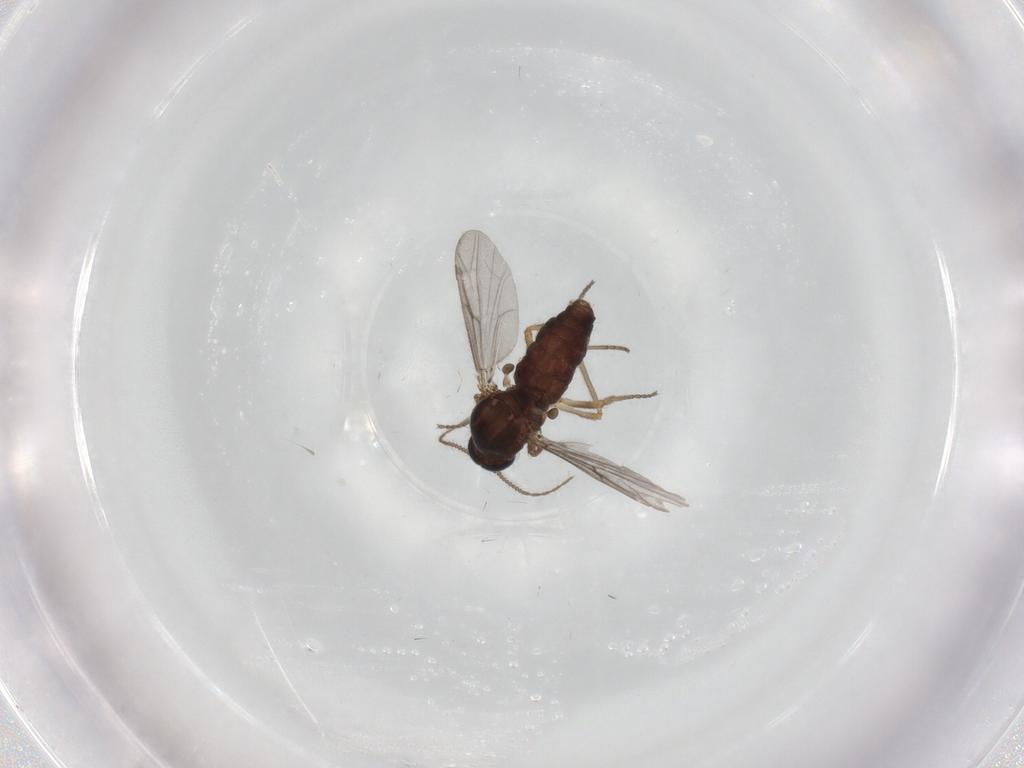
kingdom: Animalia
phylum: Arthropoda
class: Insecta
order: Diptera
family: Ceratopogonidae
